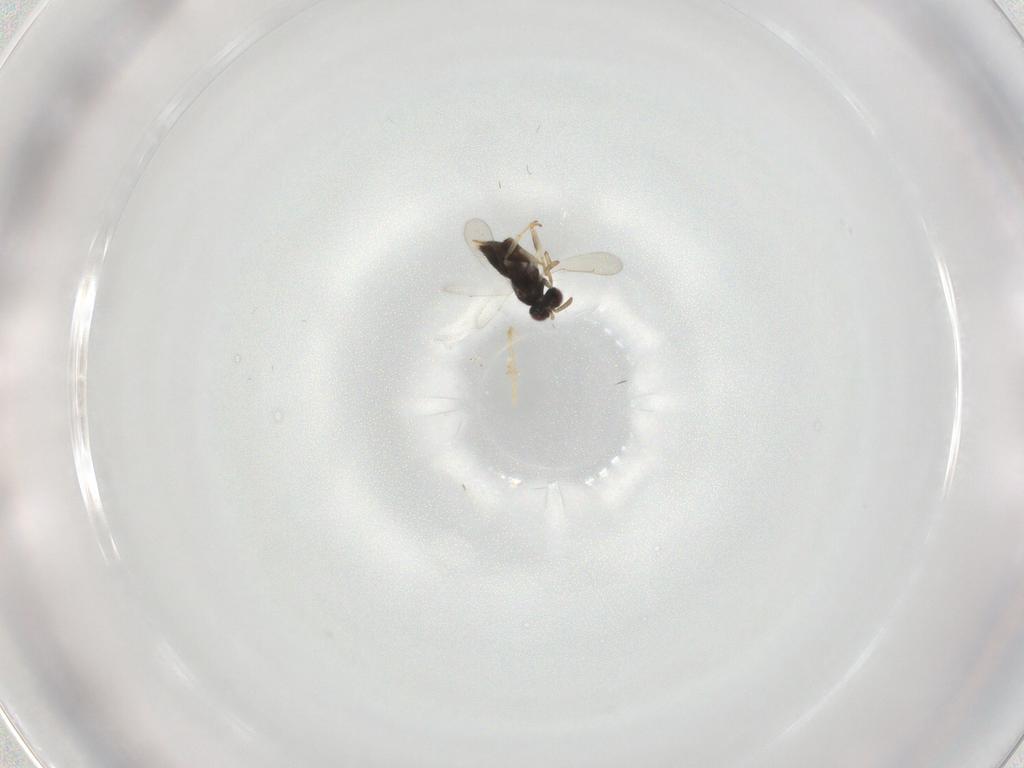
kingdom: Animalia
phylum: Arthropoda
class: Insecta
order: Hymenoptera
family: Aphelinidae
